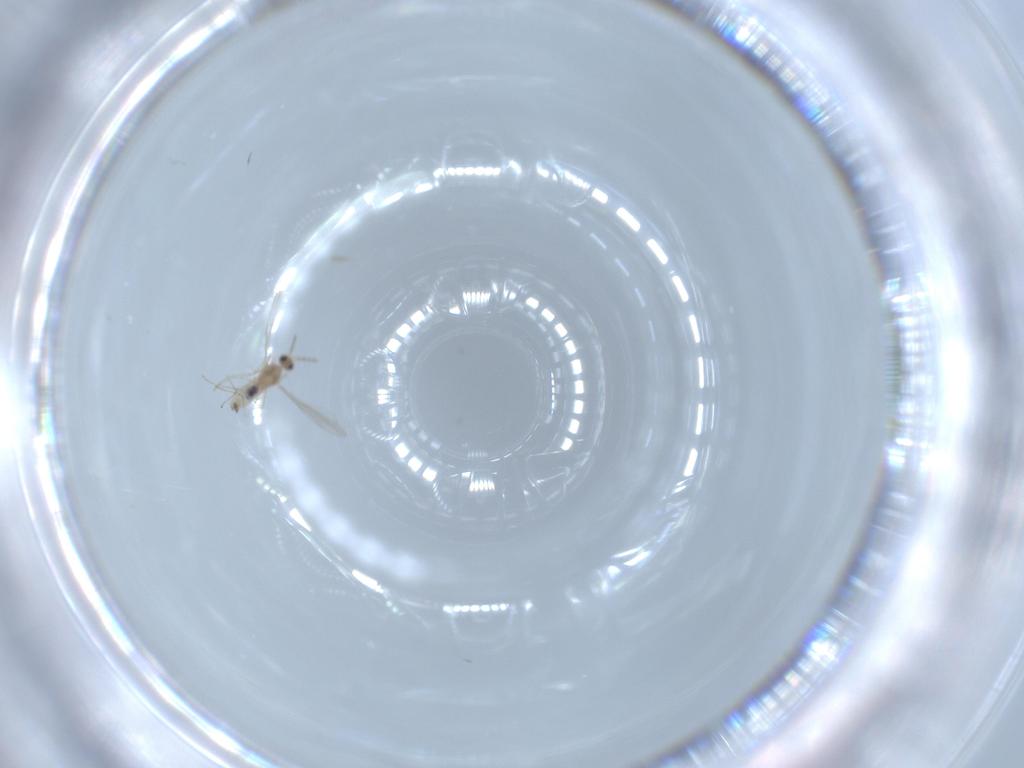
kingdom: Animalia
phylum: Arthropoda
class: Insecta
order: Diptera
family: Cecidomyiidae
